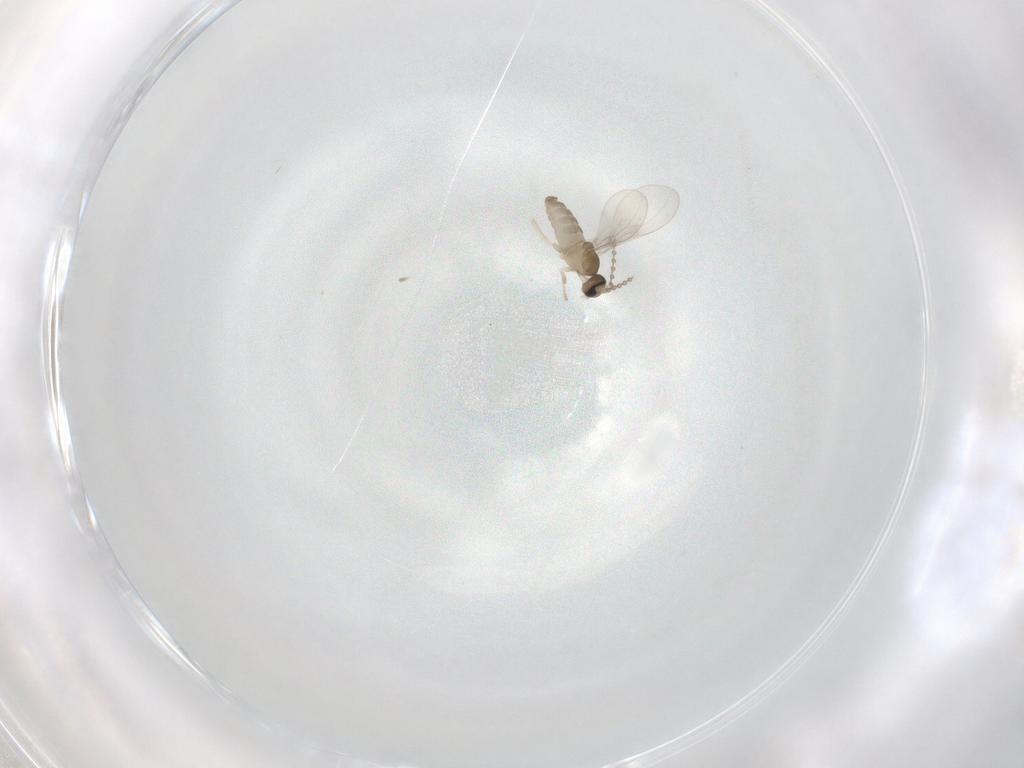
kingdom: Animalia
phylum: Arthropoda
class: Insecta
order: Diptera
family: Cecidomyiidae
